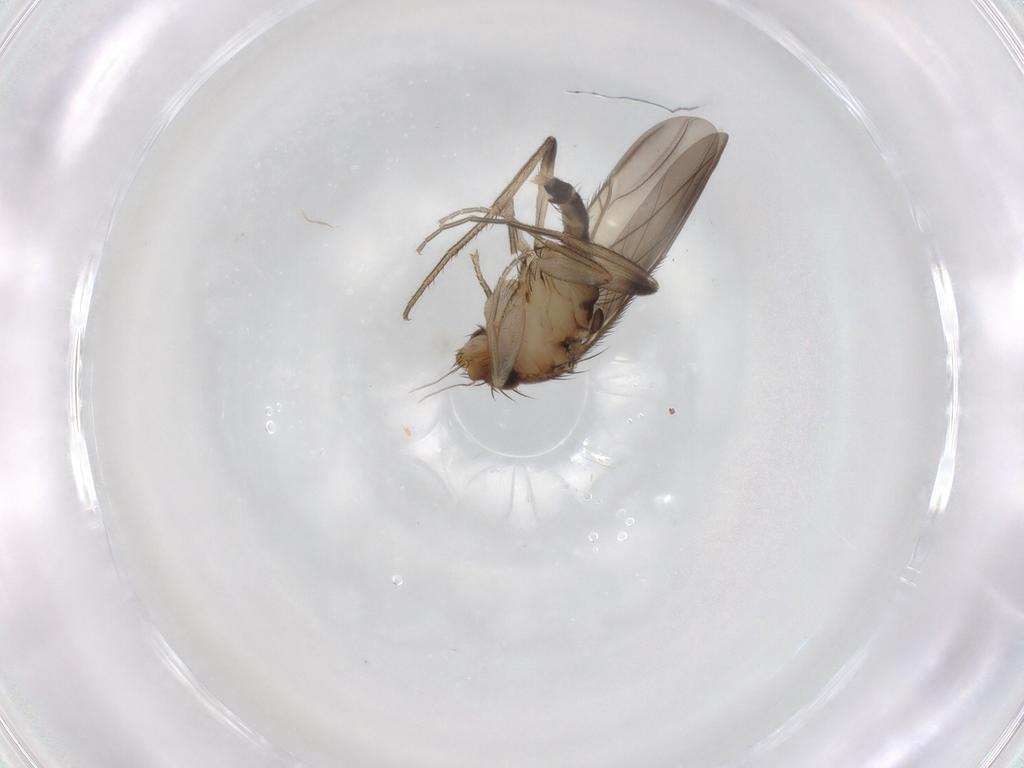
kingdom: Animalia
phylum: Arthropoda
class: Insecta
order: Diptera
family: Phoridae
